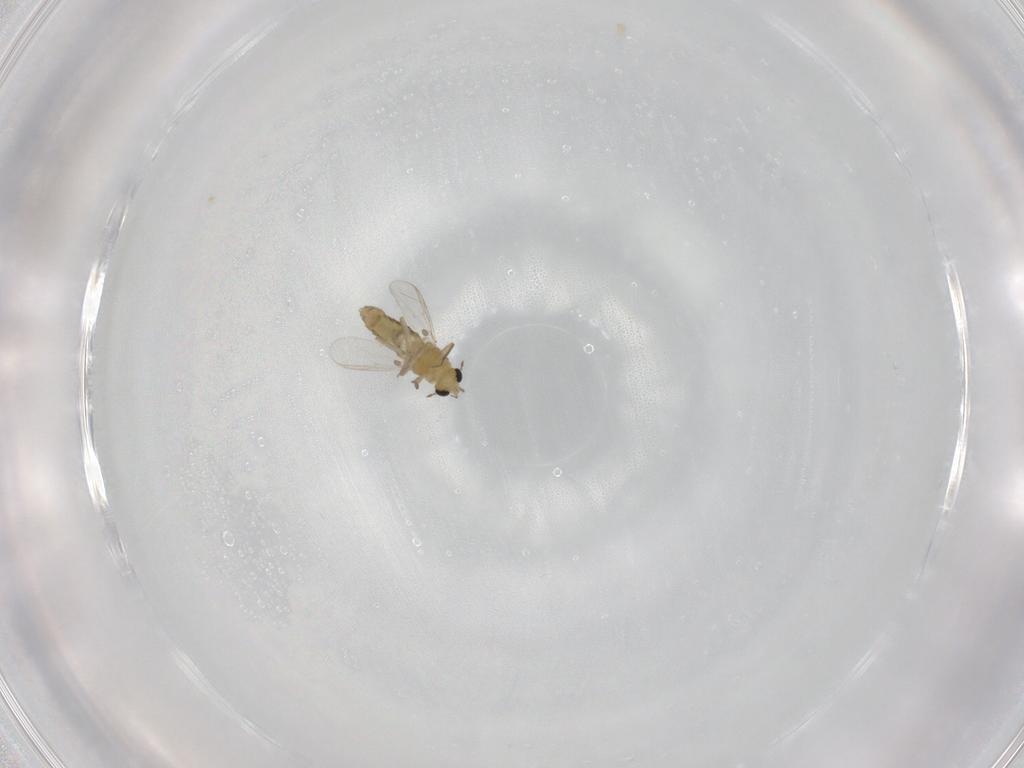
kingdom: Animalia
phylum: Arthropoda
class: Insecta
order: Diptera
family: Chironomidae
